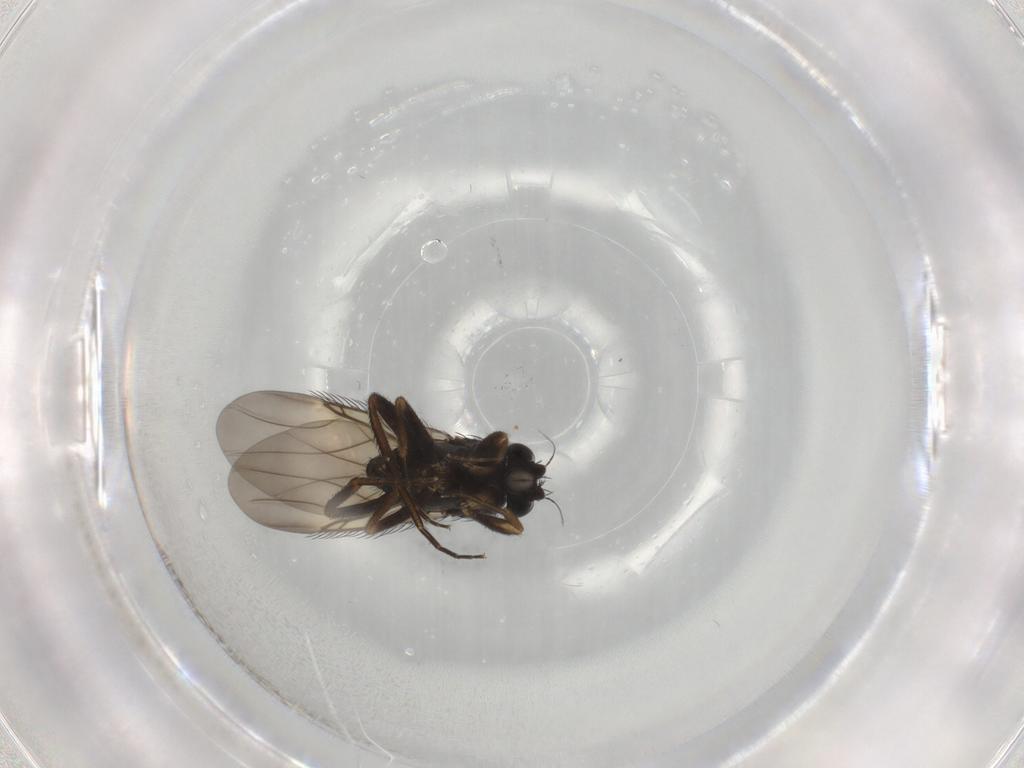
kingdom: Animalia
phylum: Arthropoda
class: Insecta
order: Diptera
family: Phoridae
